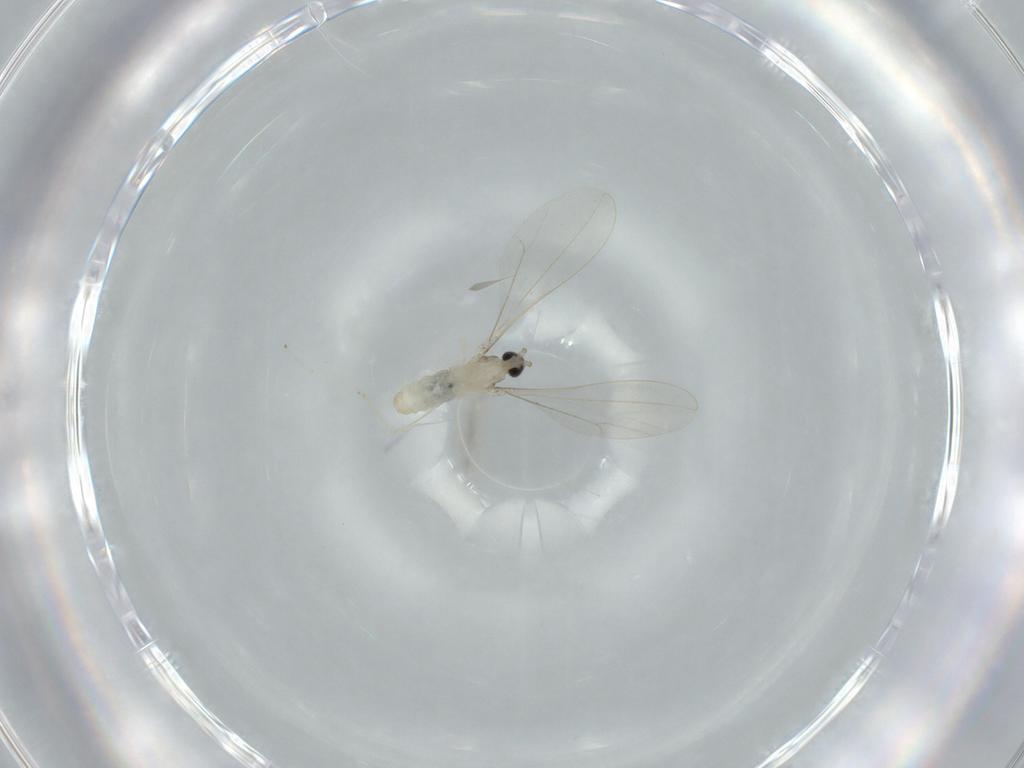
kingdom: Animalia
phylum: Arthropoda
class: Insecta
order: Diptera
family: Cecidomyiidae
